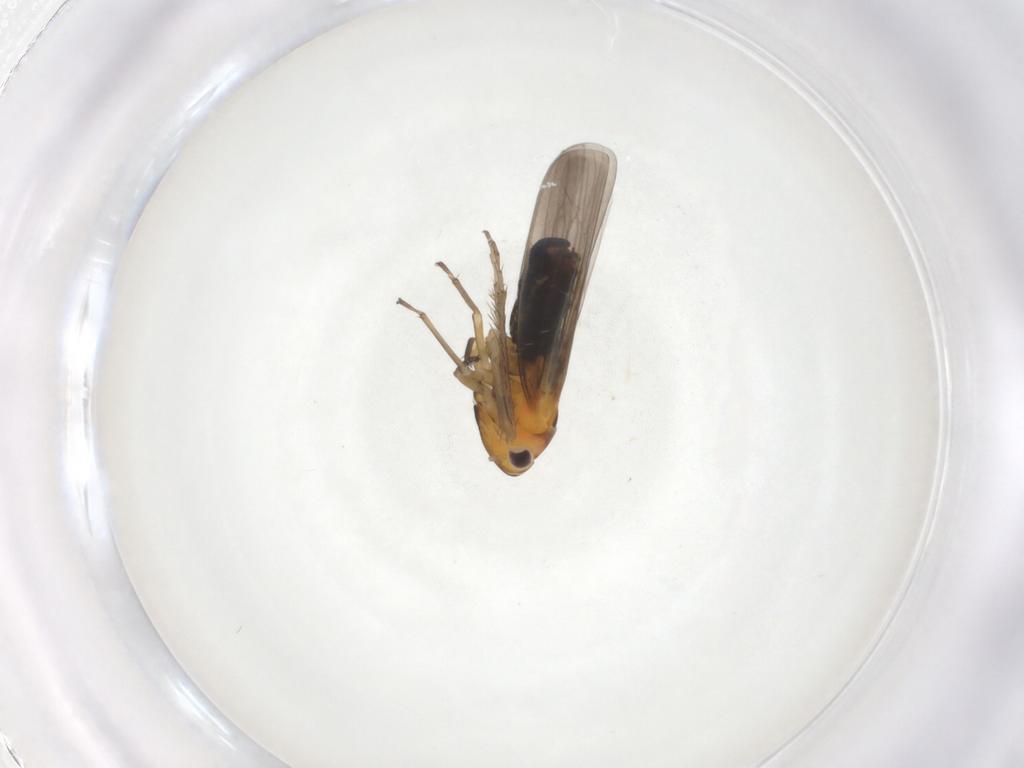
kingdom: Animalia
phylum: Arthropoda
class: Insecta
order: Hemiptera
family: Cicadellidae
